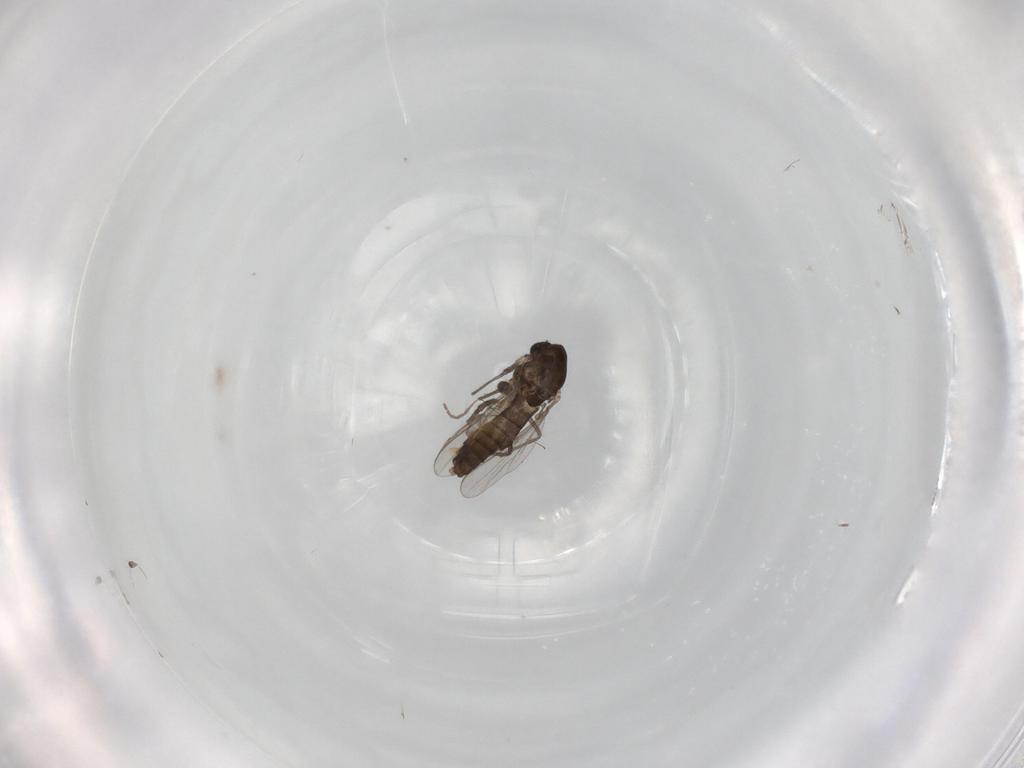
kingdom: Animalia
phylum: Arthropoda
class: Insecta
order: Diptera
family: Chironomidae
